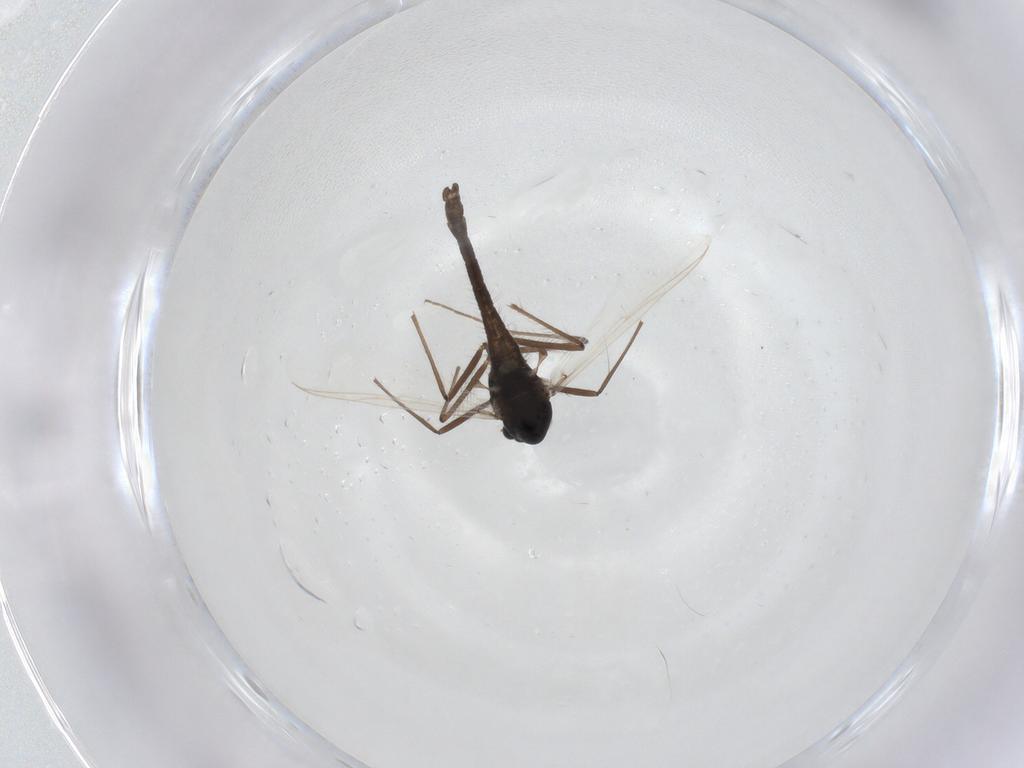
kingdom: Animalia
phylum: Arthropoda
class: Insecta
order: Diptera
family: Chironomidae
